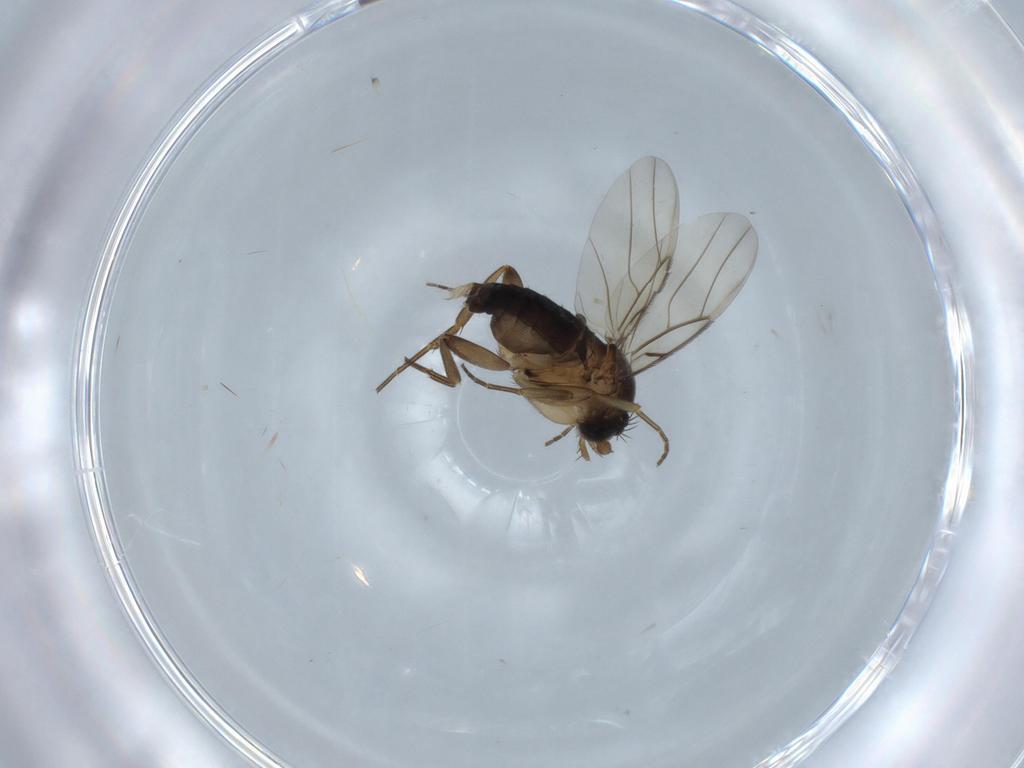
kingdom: Animalia
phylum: Arthropoda
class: Insecta
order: Diptera
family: Phoridae
